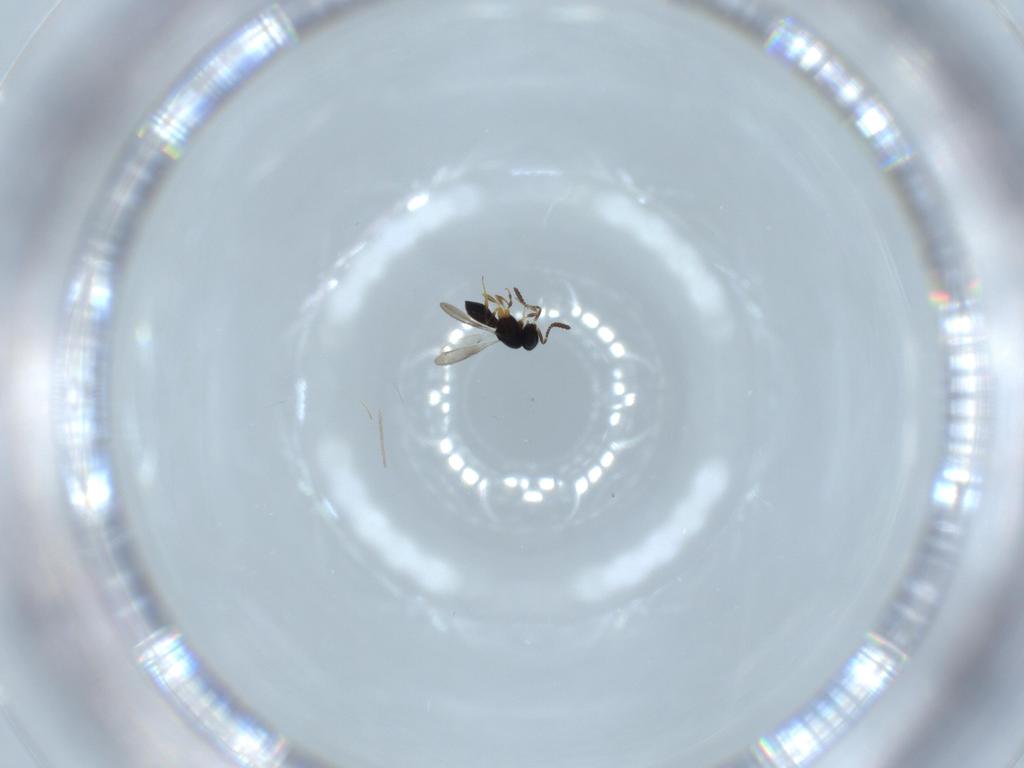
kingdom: Animalia
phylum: Arthropoda
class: Insecta
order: Hymenoptera
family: Scelionidae
